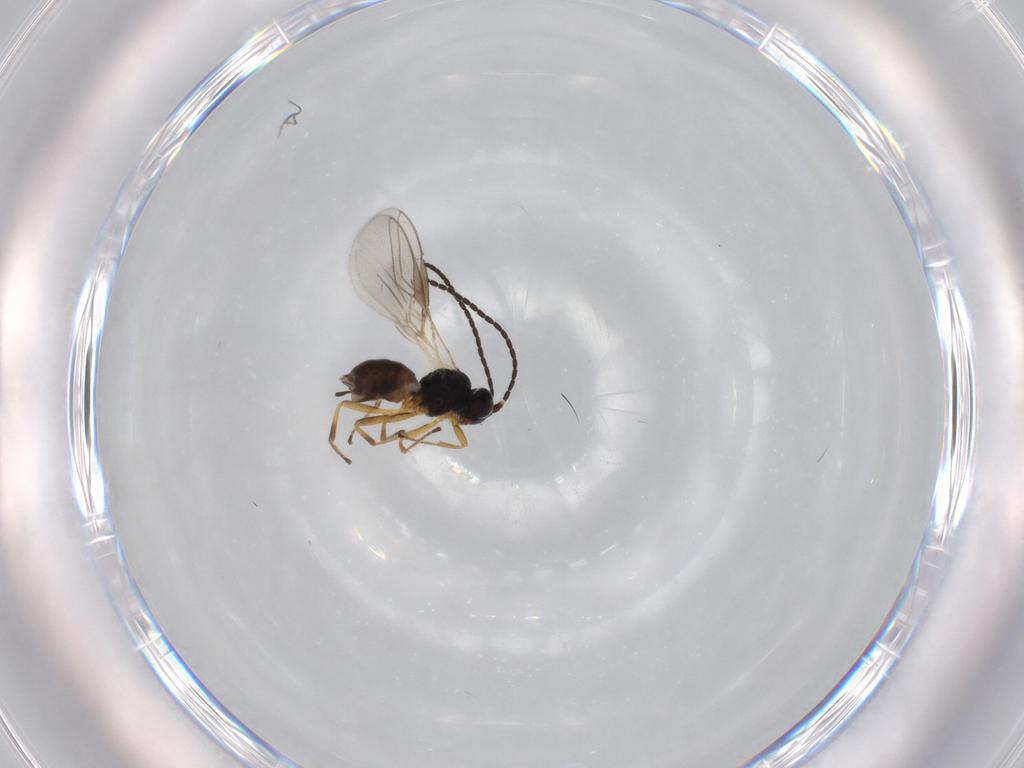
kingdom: Animalia
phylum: Arthropoda
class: Insecta
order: Hymenoptera
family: Braconidae
